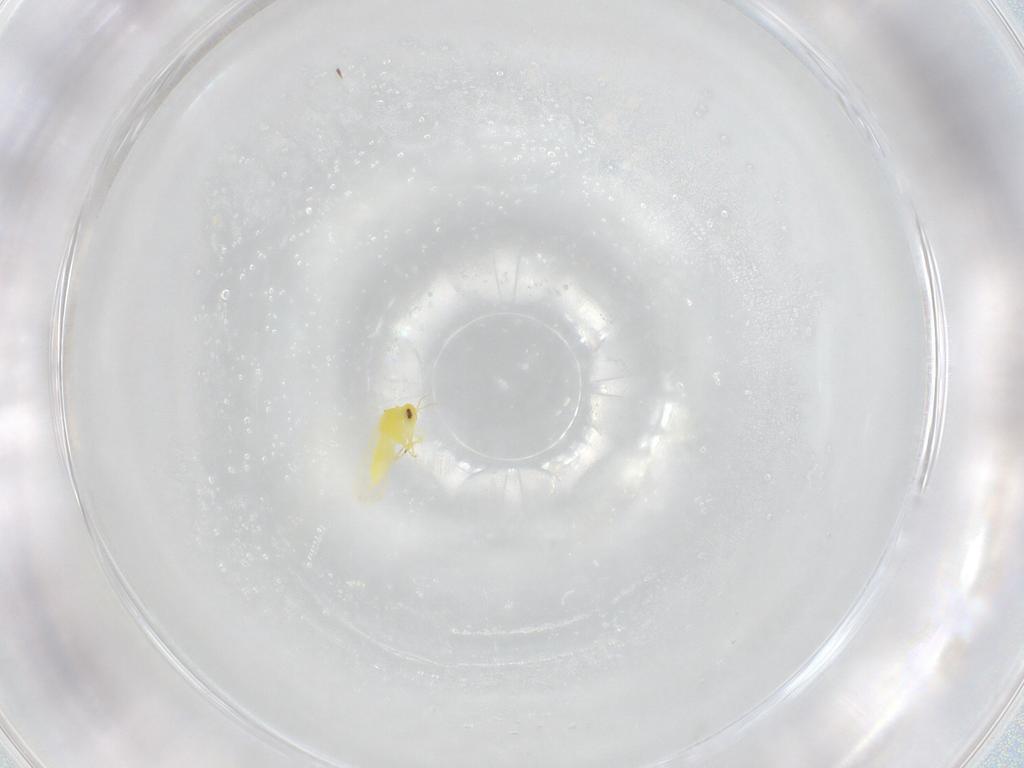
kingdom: Animalia
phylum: Arthropoda
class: Insecta
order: Hemiptera
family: Aleyrodidae
